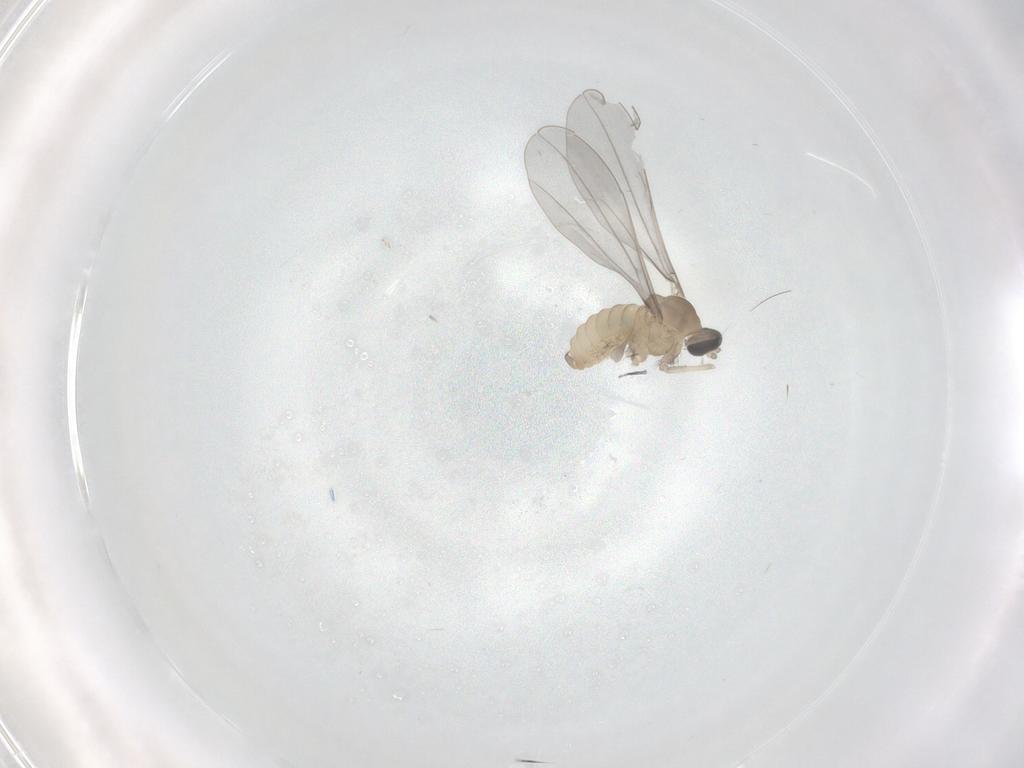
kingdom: Animalia
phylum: Arthropoda
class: Insecta
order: Diptera
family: Cecidomyiidae
